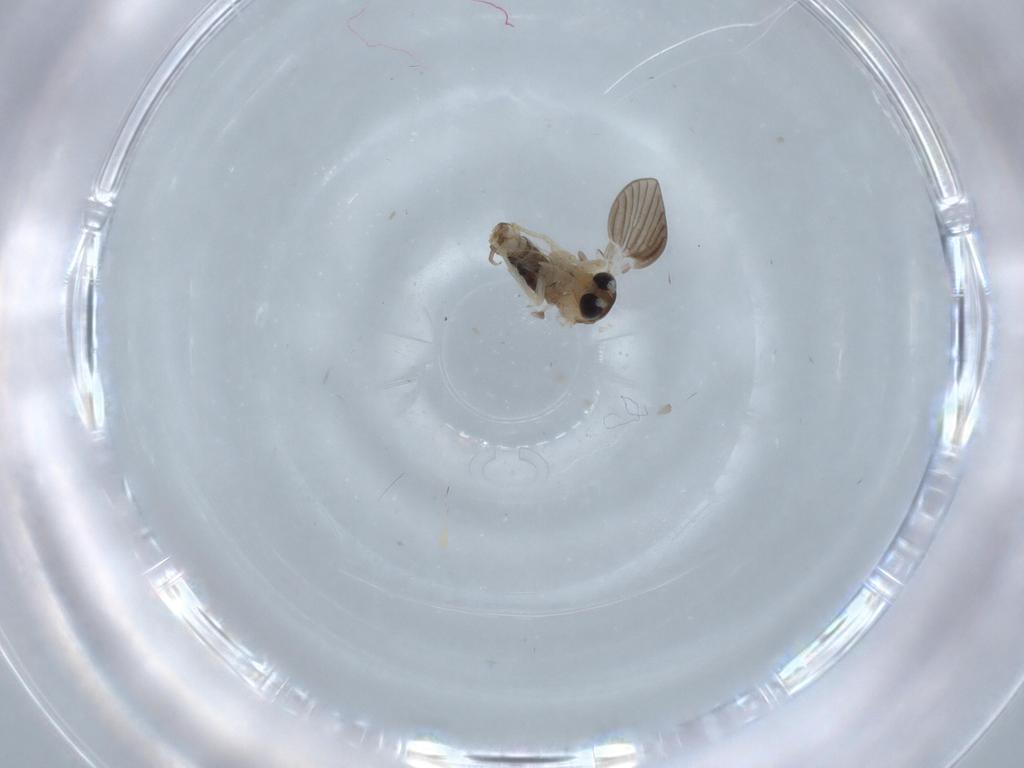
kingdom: Animalia
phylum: Arthropoda
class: Insecta
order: Diptera
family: Psychodidae
